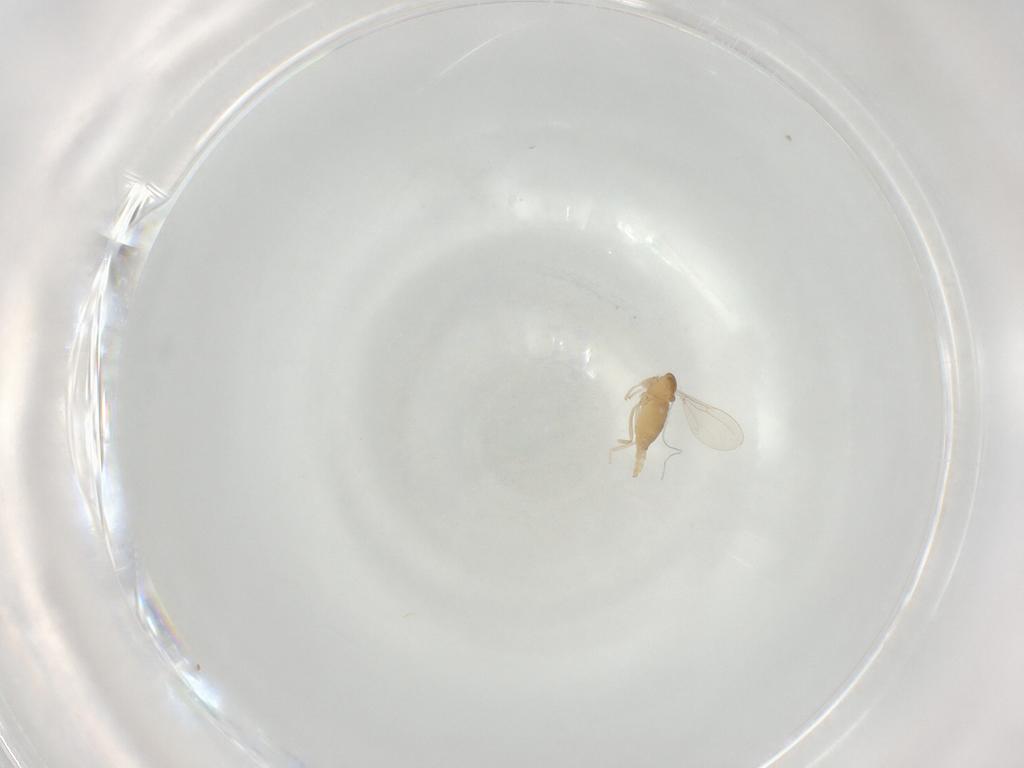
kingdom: Animalia
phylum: Arthropoda
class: Insecta
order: Diptera
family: Cecidomyiidae
